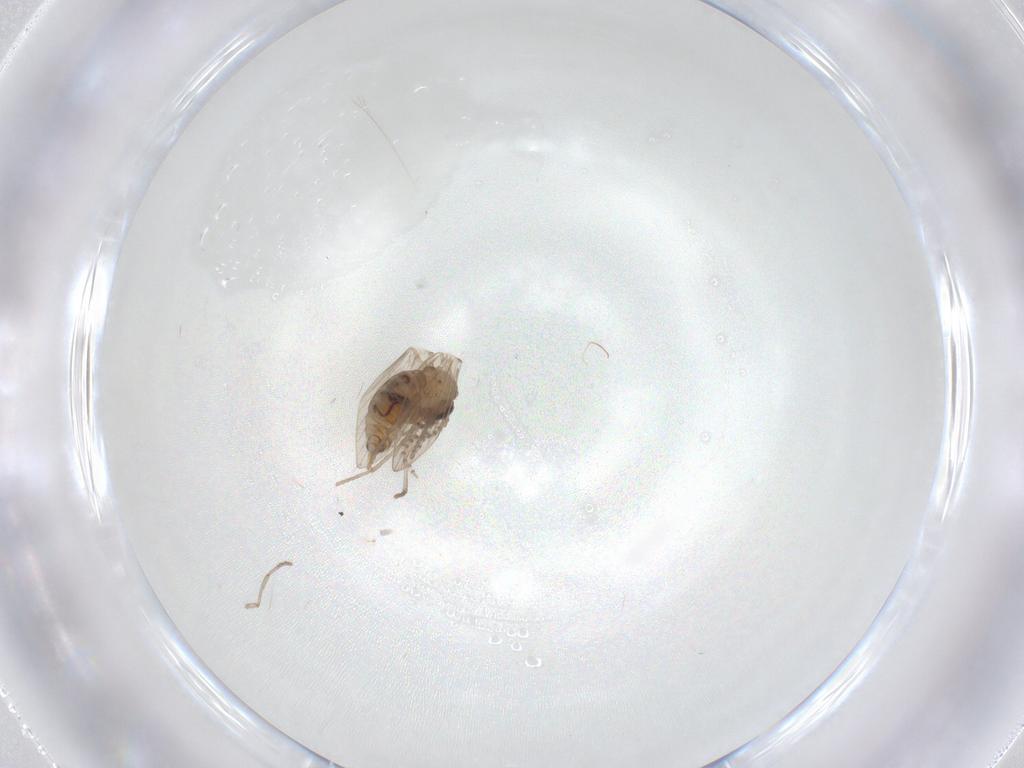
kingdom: Animalia
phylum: Arthropoda
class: Insecta
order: Diptera
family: Psychodidae
